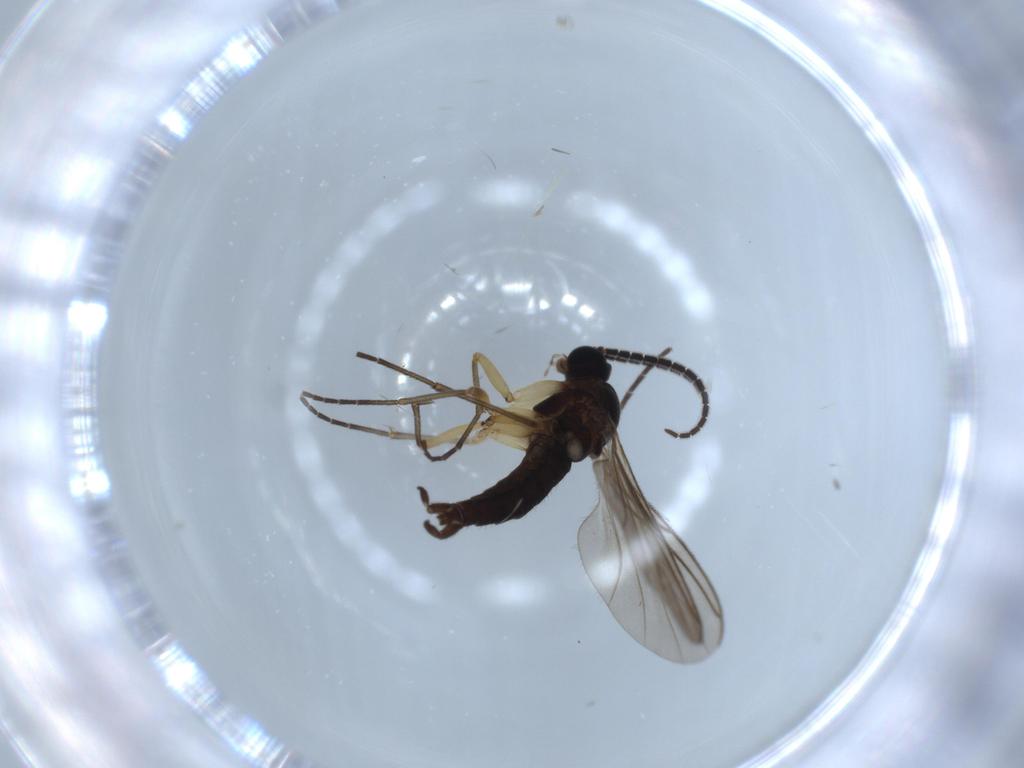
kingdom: Animalia
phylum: Arthropoda
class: Insecta
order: Diptera
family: Sciaridae
